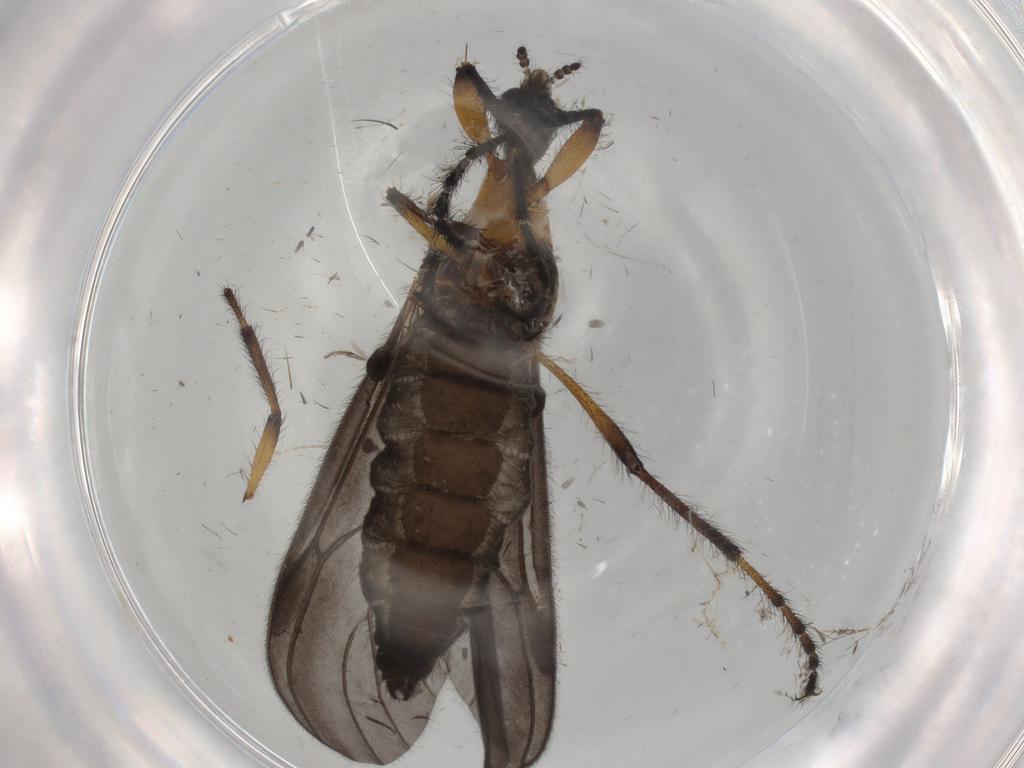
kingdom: Animalia
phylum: Arthropoda
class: Insecta
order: Diptera
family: Bibionidae
